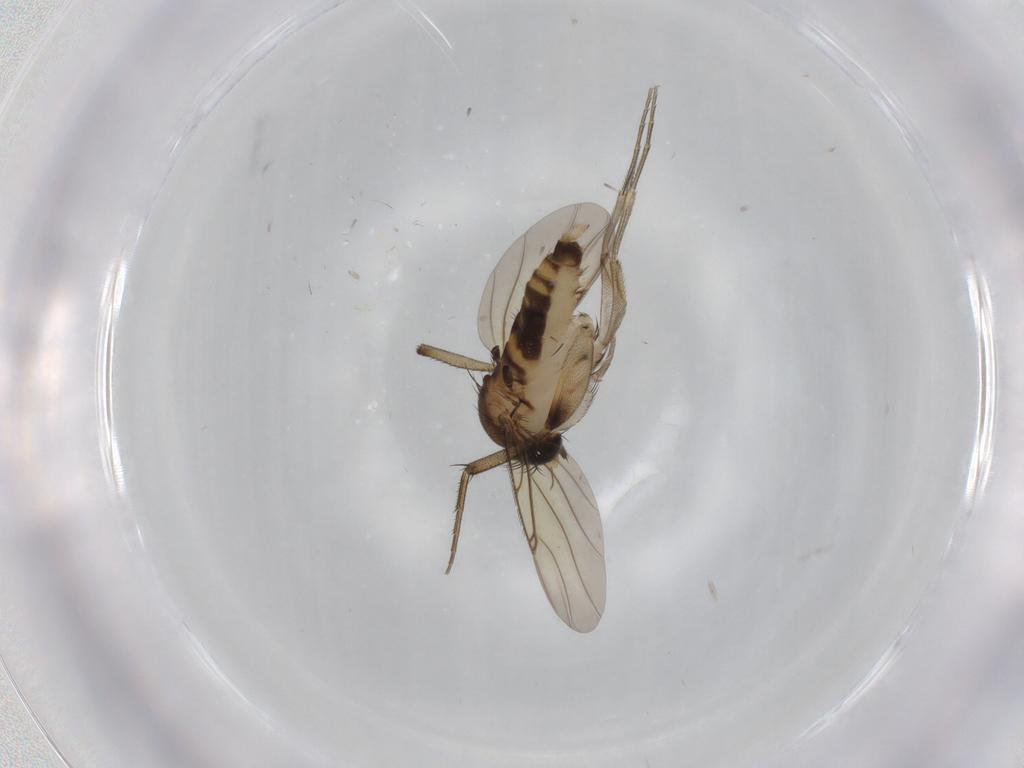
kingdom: Animalia
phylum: Arthropoda
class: Insecta
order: Diptera
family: Phoridae
